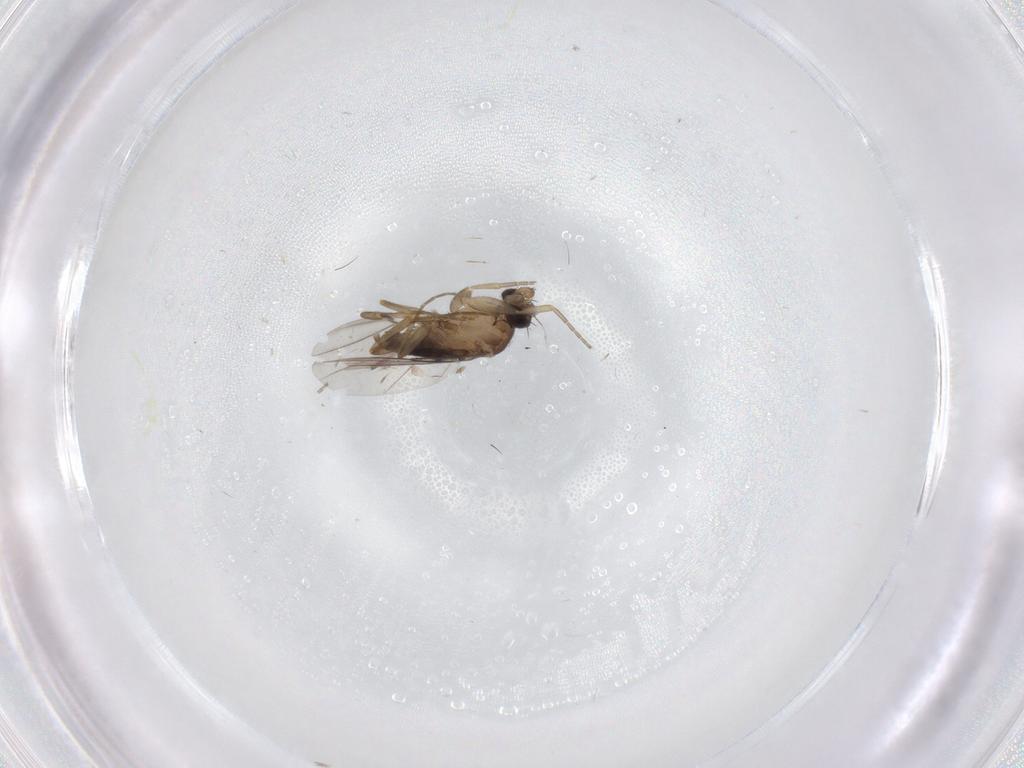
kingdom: Animalia
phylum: Arthropoda
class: Insecta
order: Diptera
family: Phoridae
